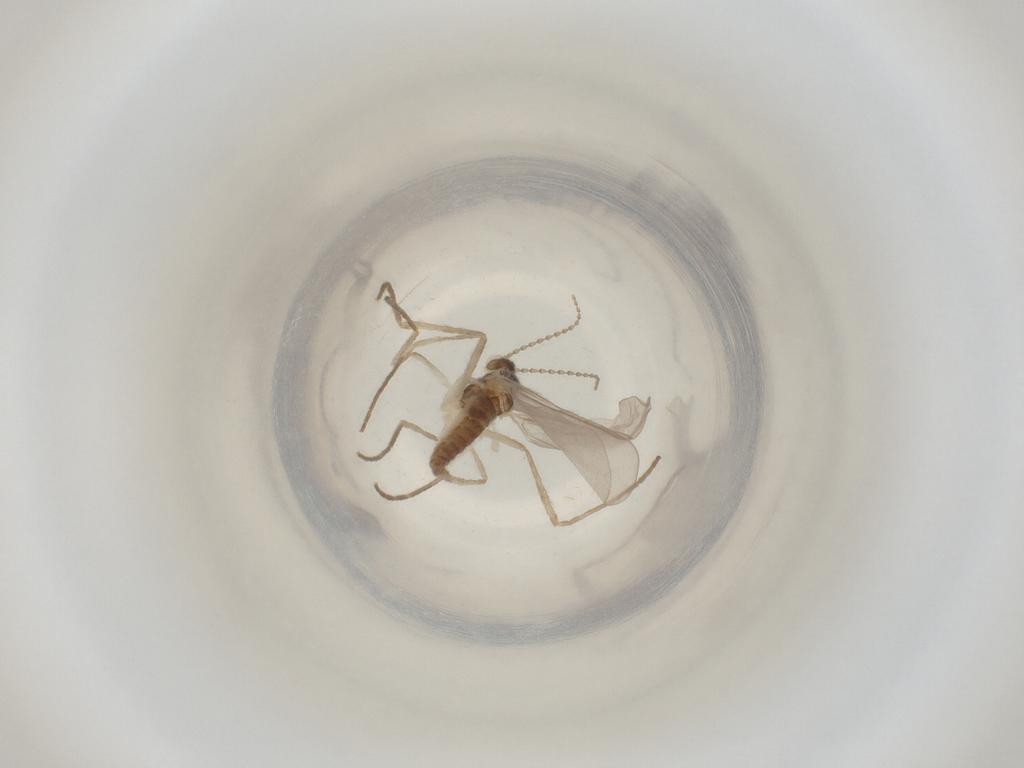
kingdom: Animalia
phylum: Arthropoda
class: Insecta
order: Diptera
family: Cecidomyiidae
